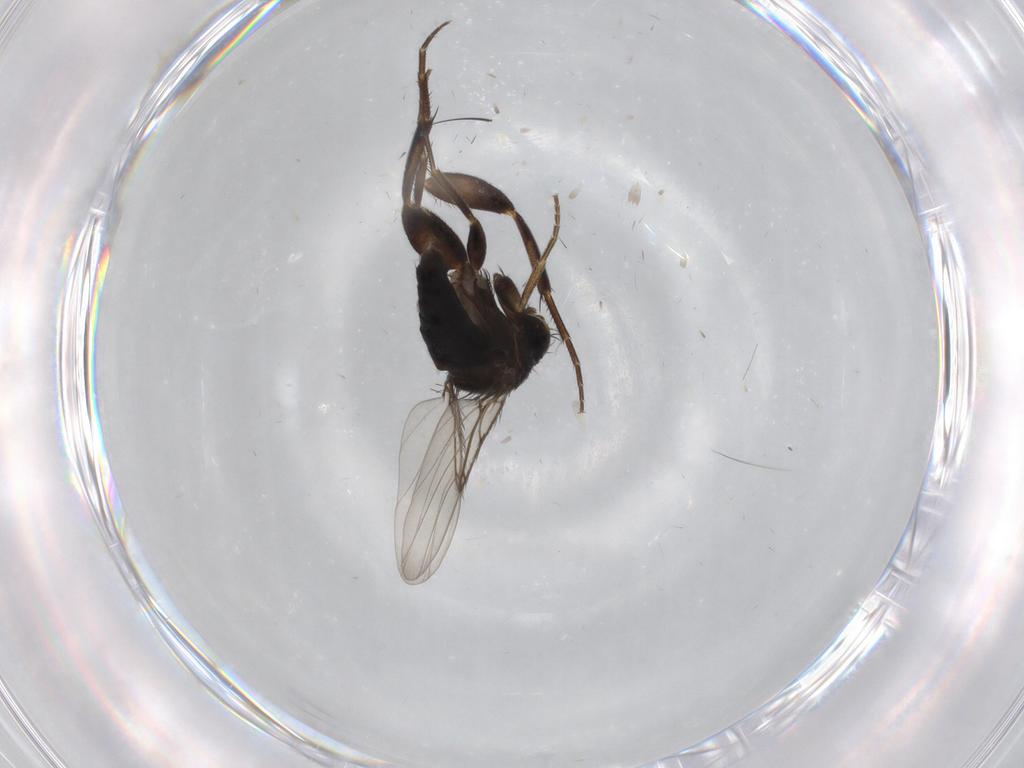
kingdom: Animalia
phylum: Arthropoda
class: Insecta
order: Diptera
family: Phoridae
